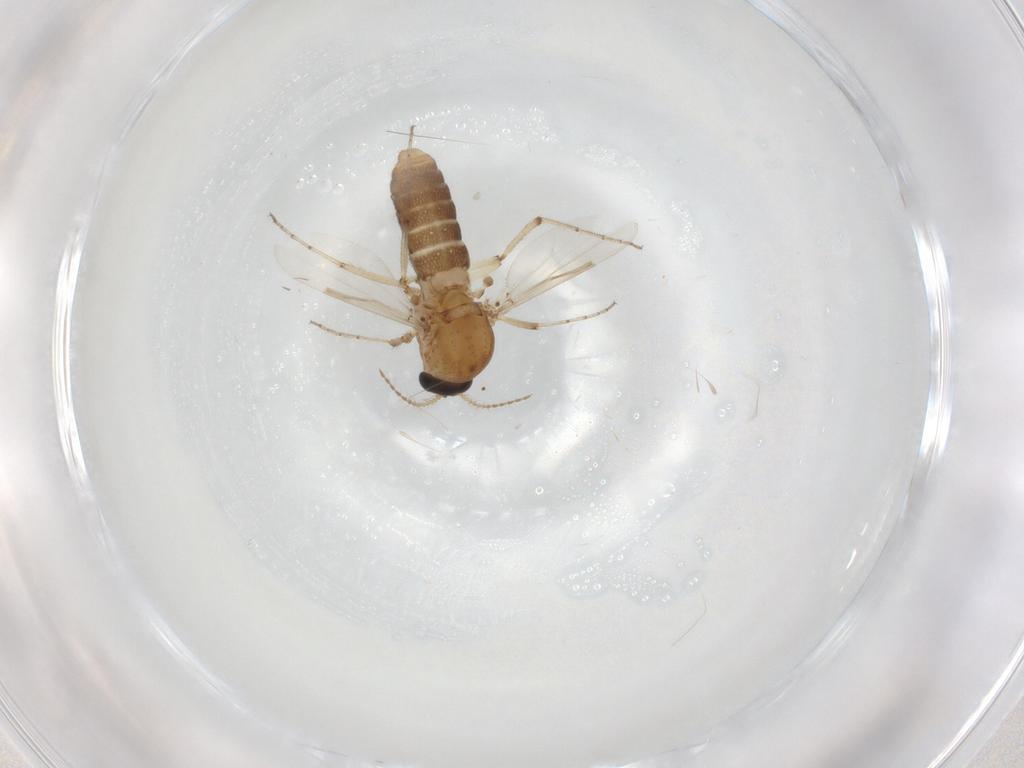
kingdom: Animalia
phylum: Arthropoda
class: Insecta
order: Diptera
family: Ceratopogonidae
